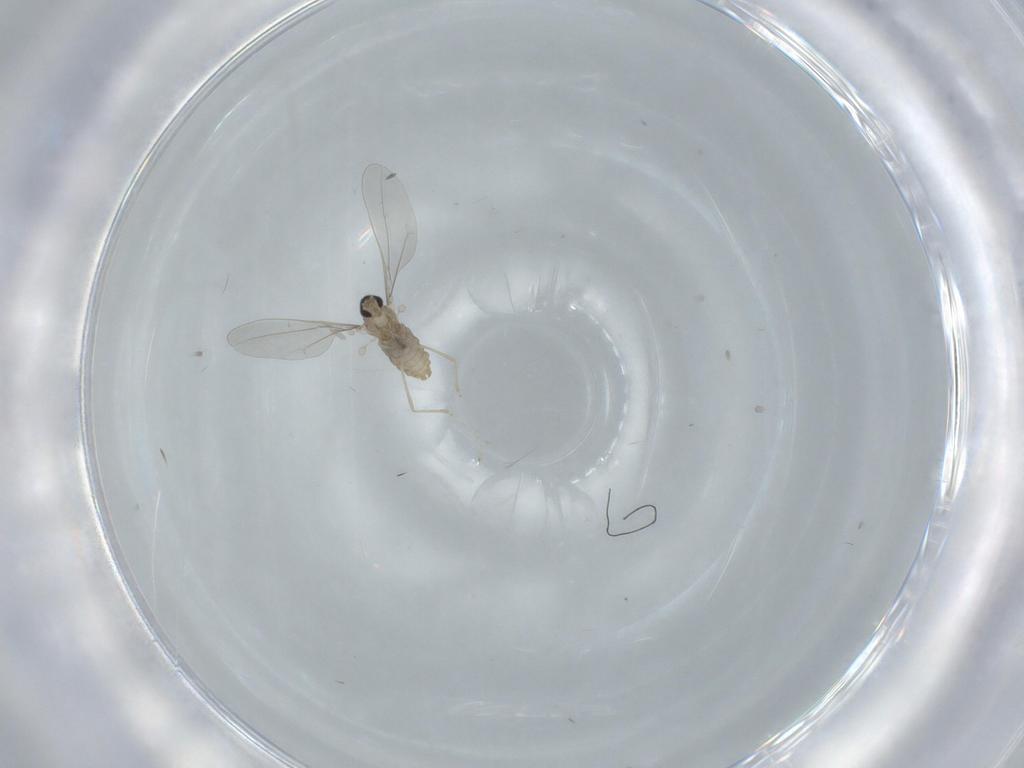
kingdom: Animalia
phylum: Arthropoda
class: Insecta
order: Diptera
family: Cecidomyiidae
